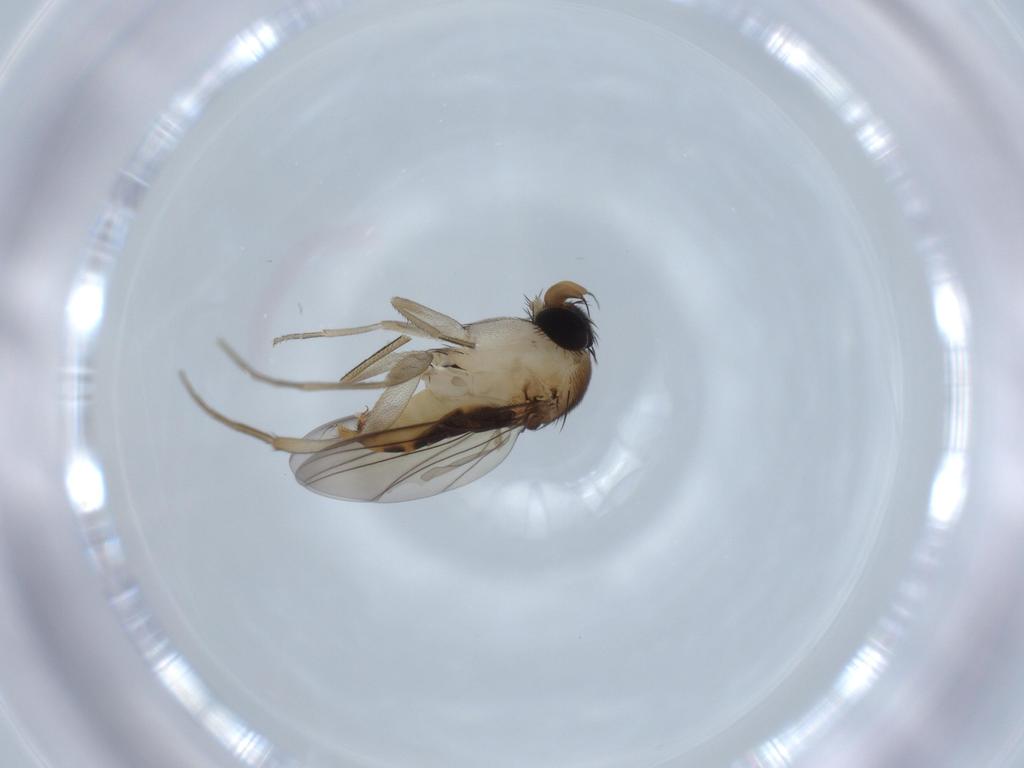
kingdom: Animalia
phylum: Arthropoda
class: Insecta
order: Diptera
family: Phoridae
